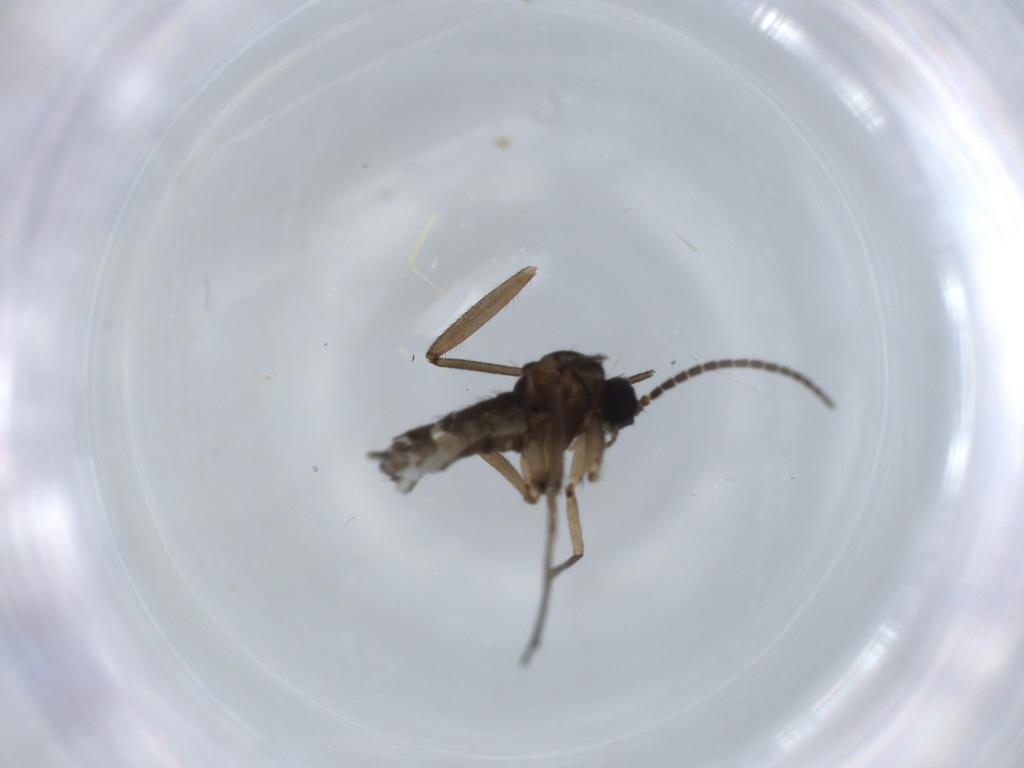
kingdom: Animalia
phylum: Arthropoda
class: Insecta
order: Diptera
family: Sciaridae
